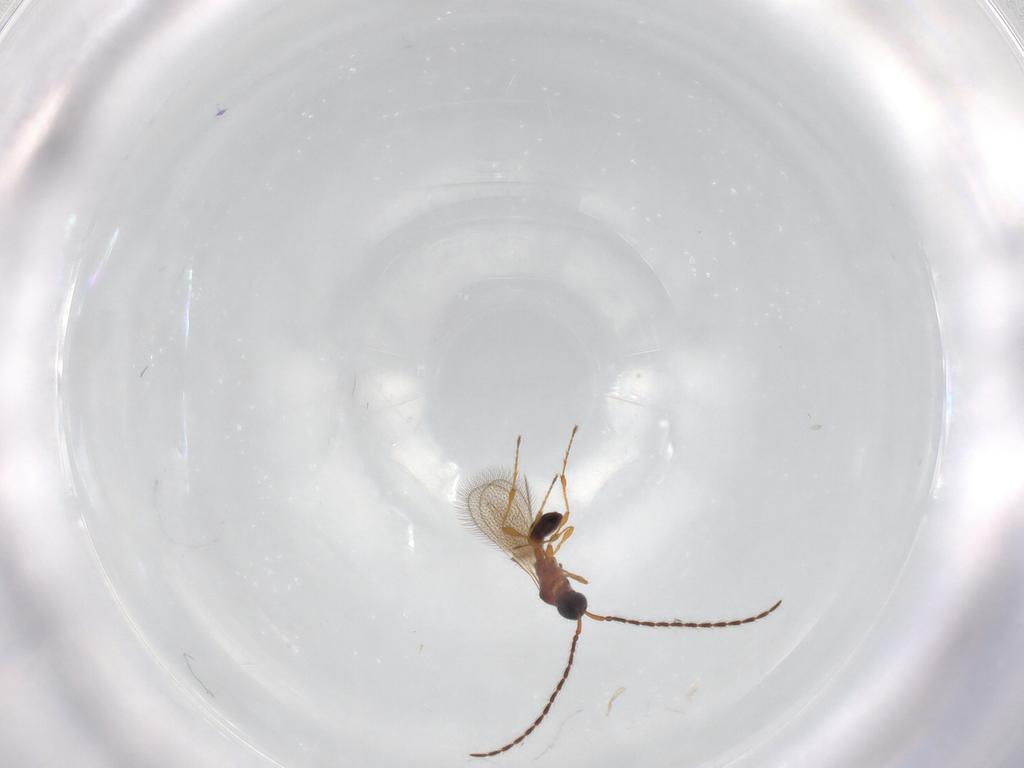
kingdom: Animalia
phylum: Arthropoda
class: Insecta
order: Hymenoptera
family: Diapriidae
